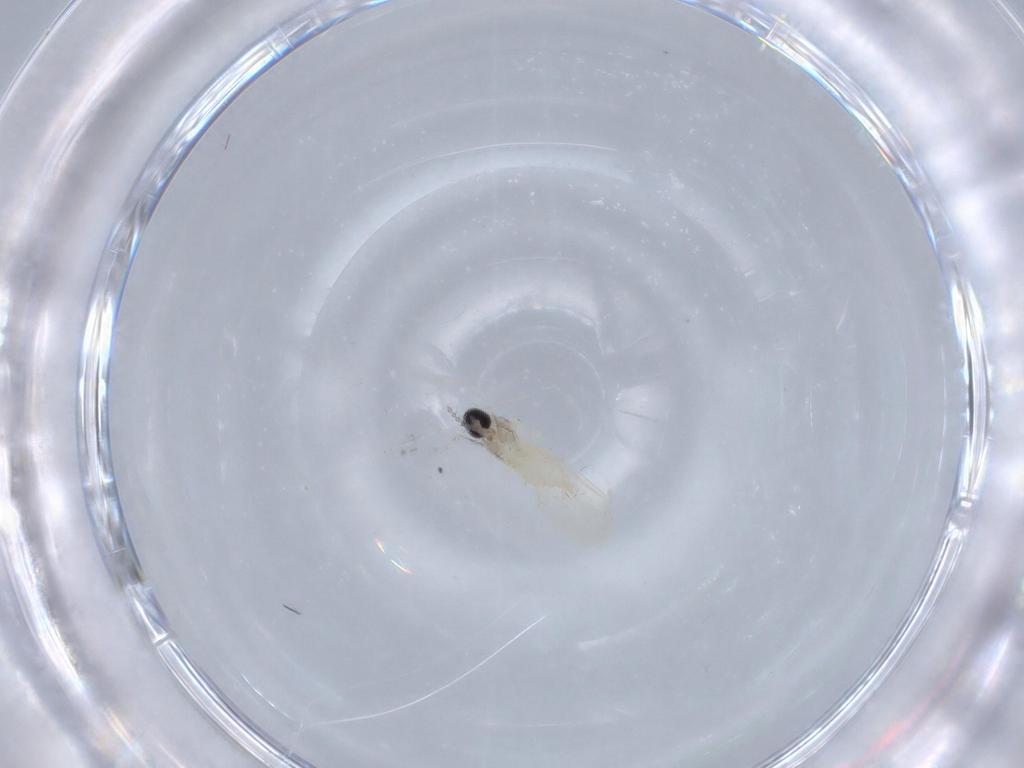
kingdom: Animalia
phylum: Arthropoda
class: Insecta
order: Diptera
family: Cecidomyiidae
